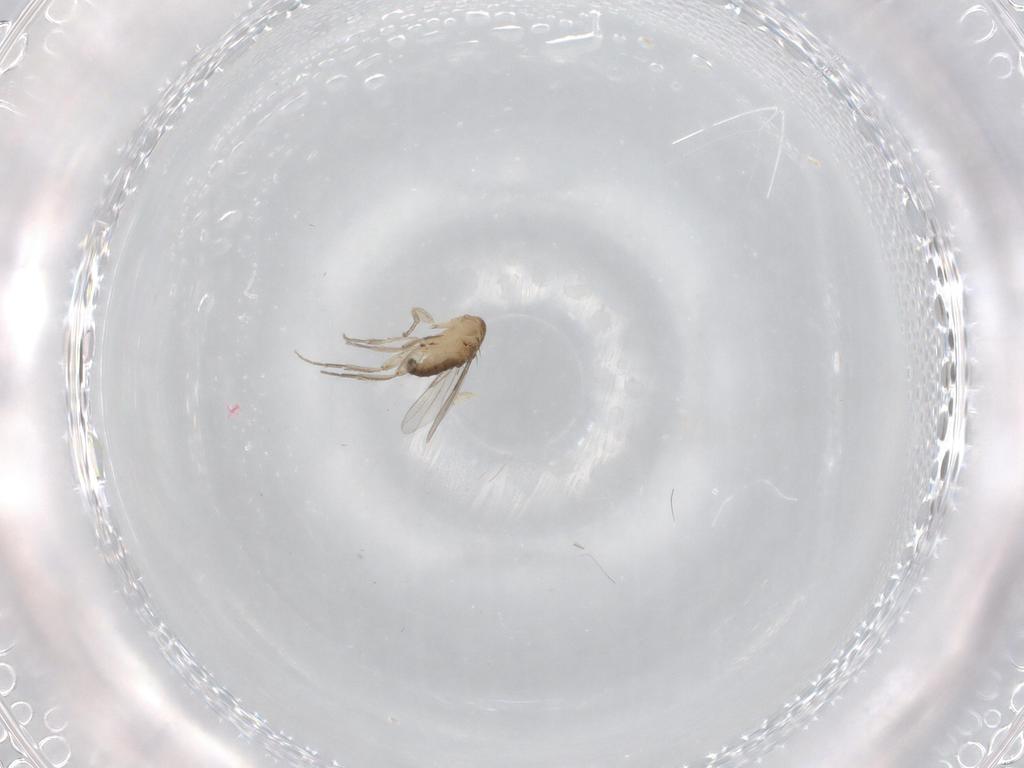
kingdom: Animalia
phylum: Arthropoda
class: Insecta
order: Diptera
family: Phoridae
